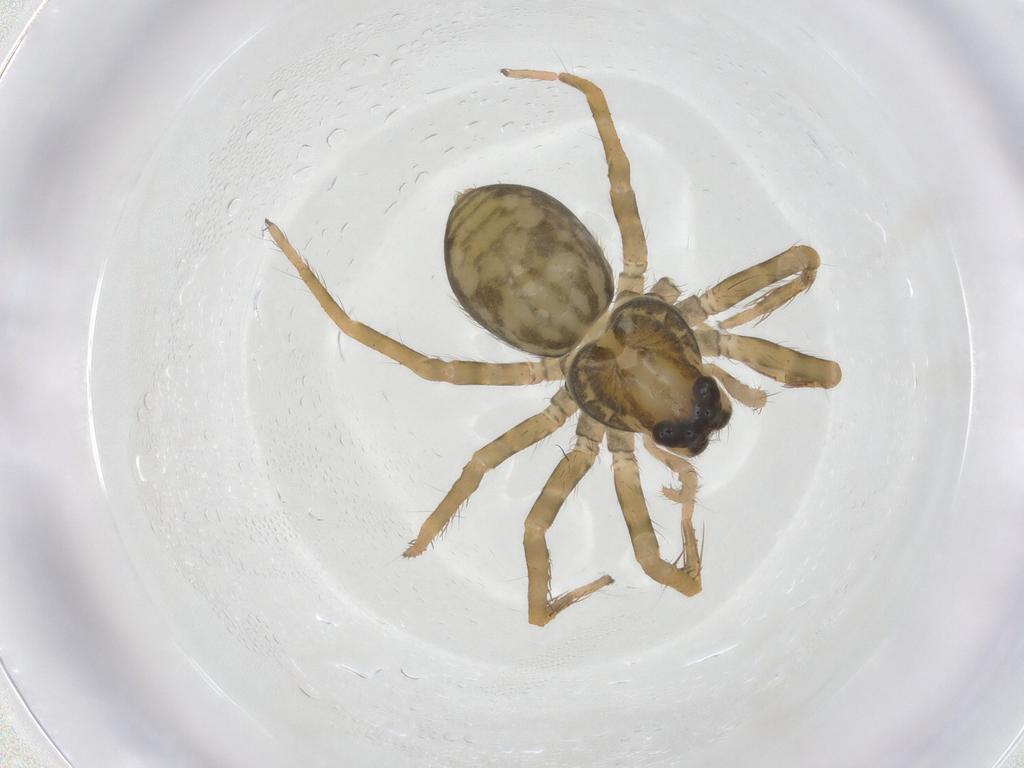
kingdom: Animalia
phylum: Arthropoda
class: Arachnida
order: Araneae
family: Ctenidae
